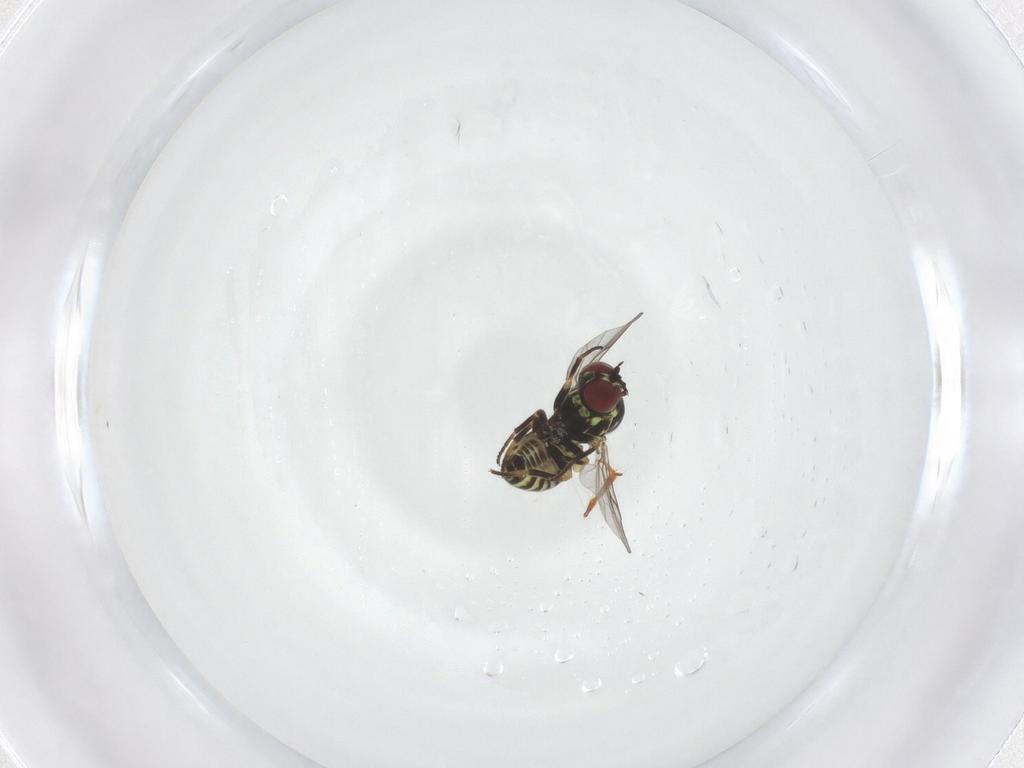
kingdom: Animalia
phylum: Arthropoda
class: Insecta
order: Diptera
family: Mythicomyiidae
